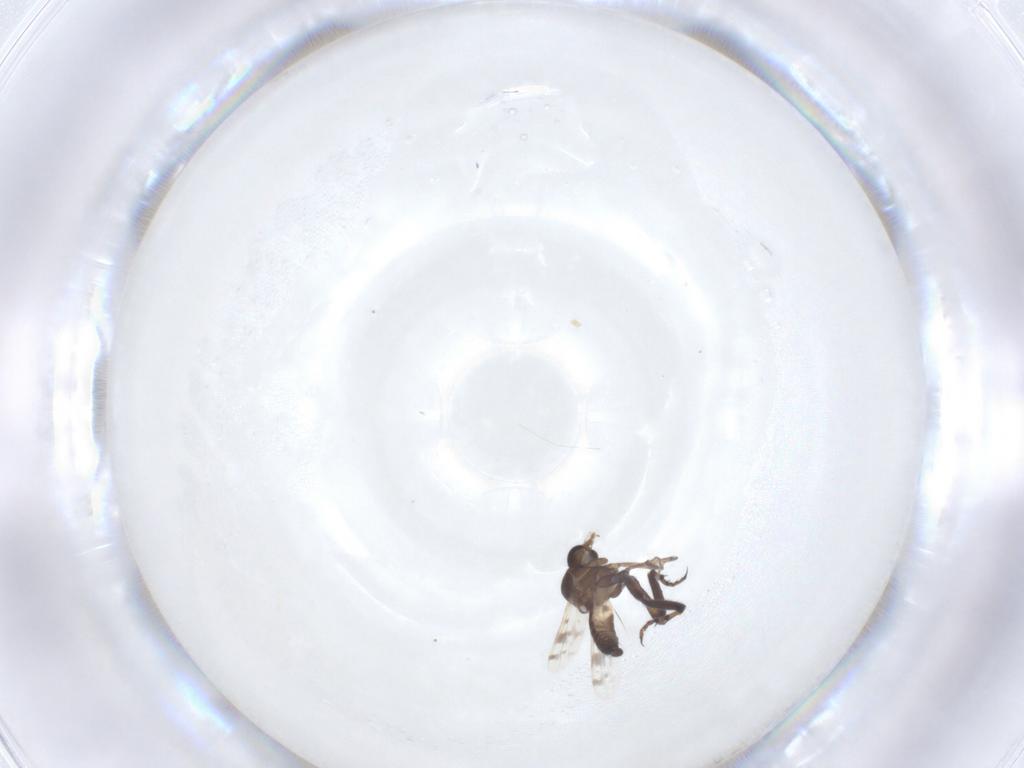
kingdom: Animalia
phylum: Arthropoda
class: Insecta
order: Diptera
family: Ceratopogonidae
